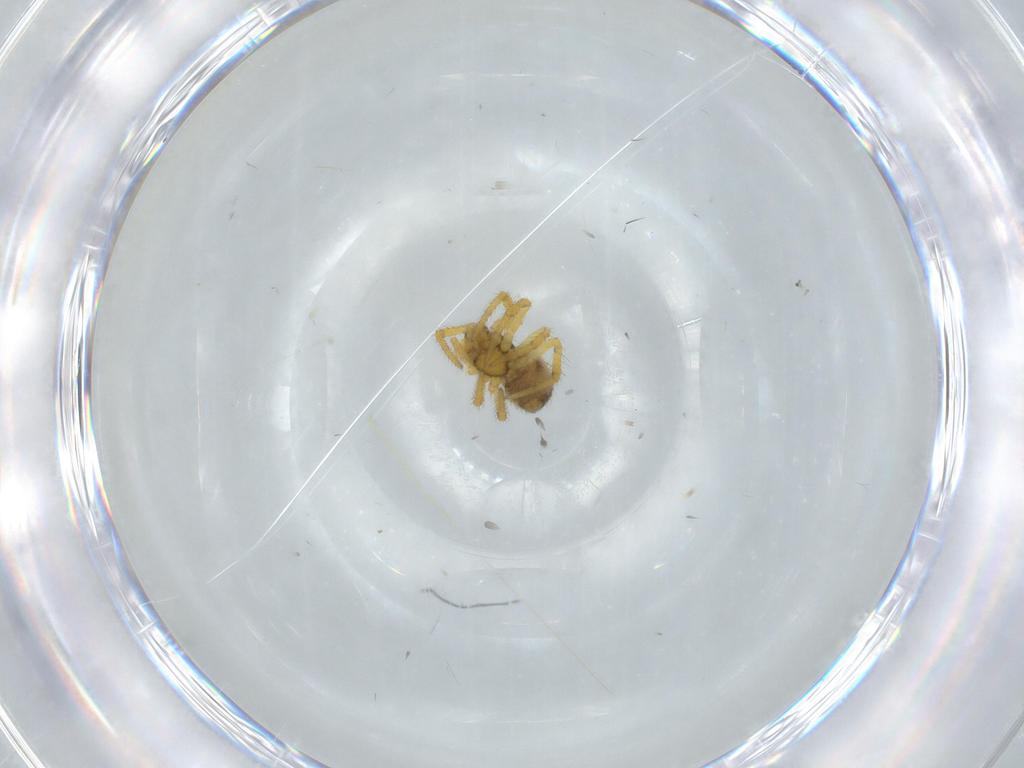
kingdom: Animalia
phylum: Arthropoda
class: Arachnida
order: Araneae
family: Theridiidae
